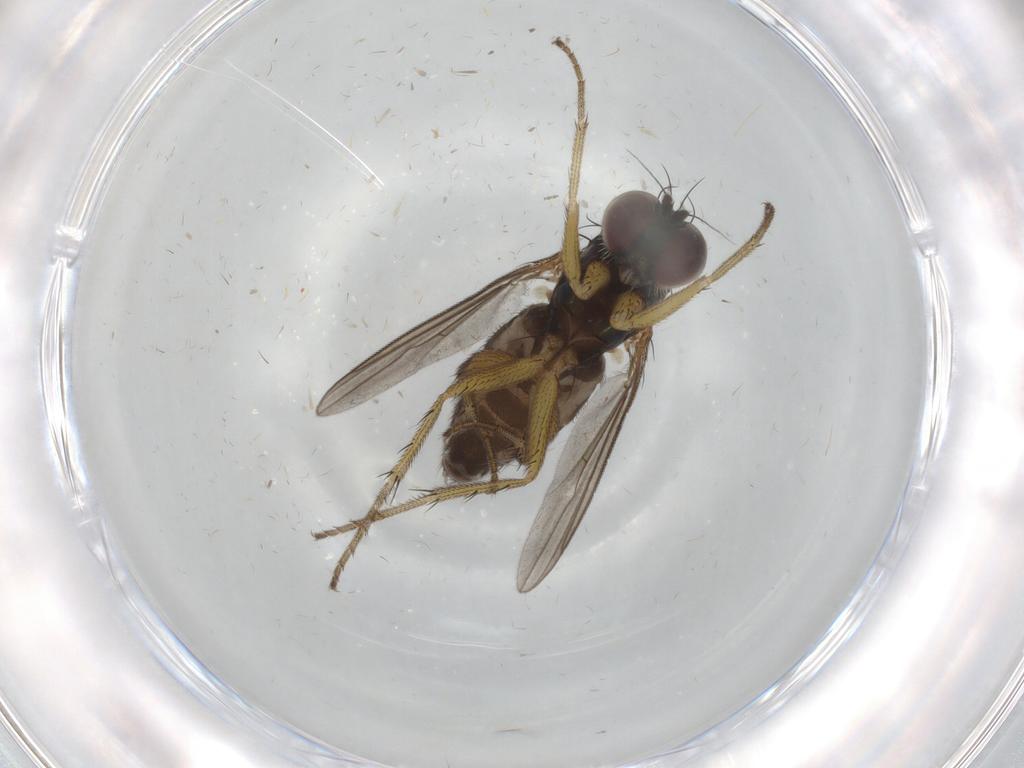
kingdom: Animalia
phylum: Arthropoda
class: Insecta
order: Diptera
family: Dolichopodidae
